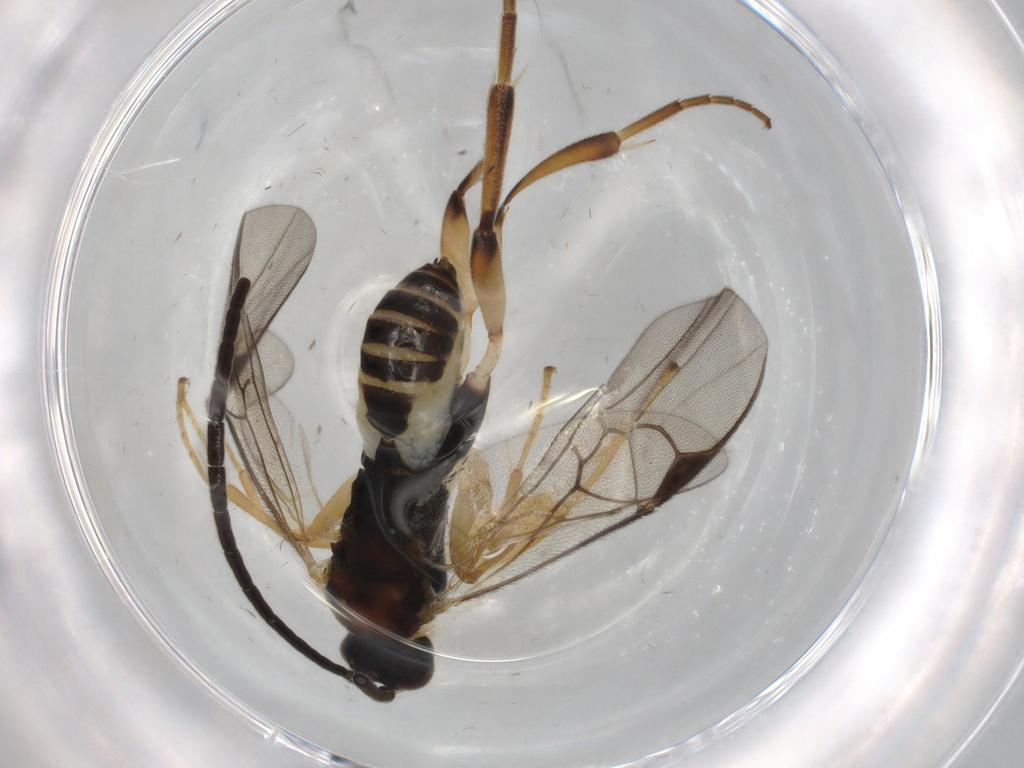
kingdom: Animalia
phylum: Arthropoda
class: Insecta
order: Hymenoptera
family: Braconidae
